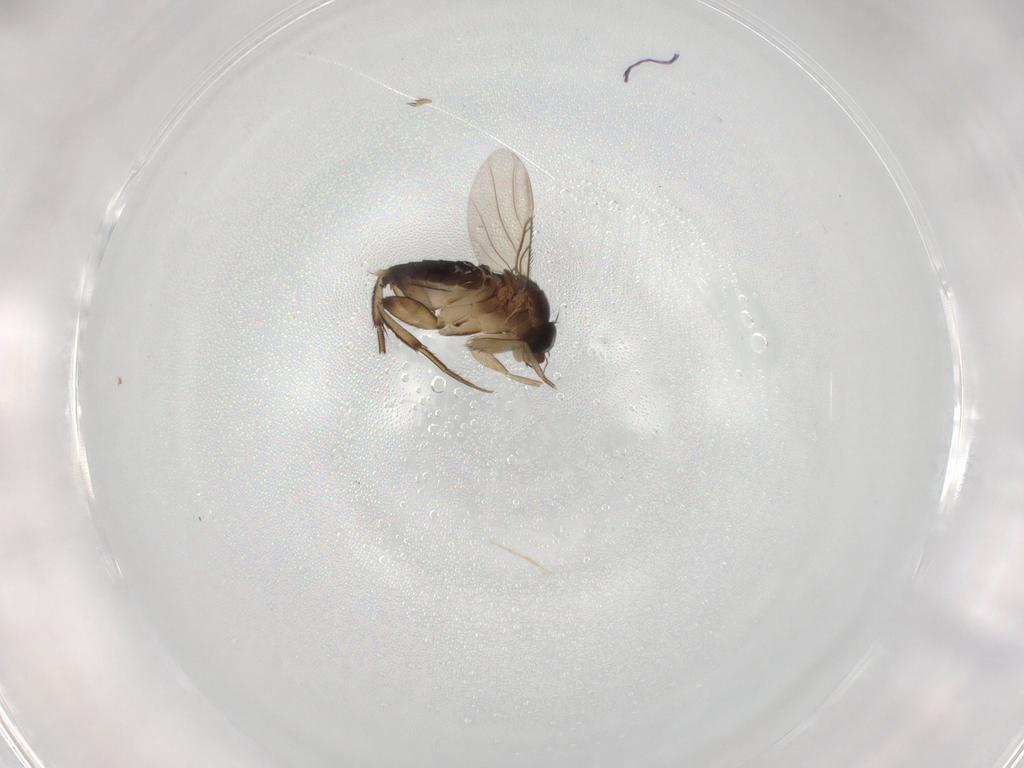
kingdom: Animalia
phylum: Arthropoda
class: Insecta
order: Diptera
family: Phoridae
